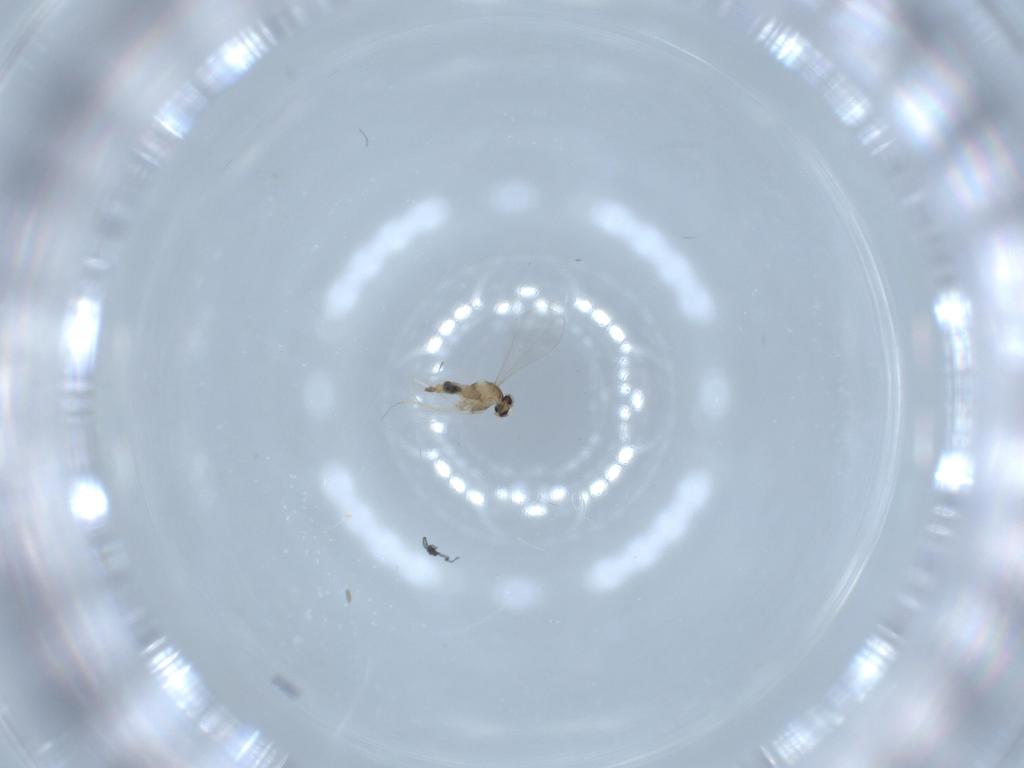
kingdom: Animalia
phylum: Arthropoda
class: Insecta
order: Diptera
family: Cecidomyiidae
